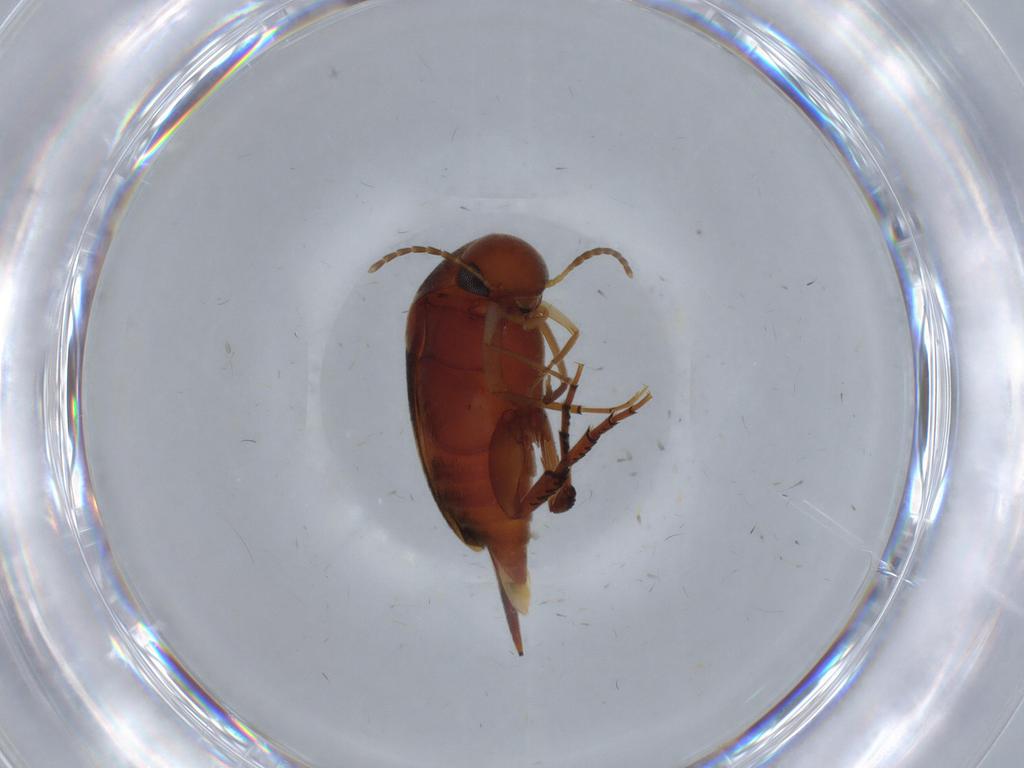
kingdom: Animalia
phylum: Arthropoda
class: Insecta
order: Coleoptera
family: Mordellidae
